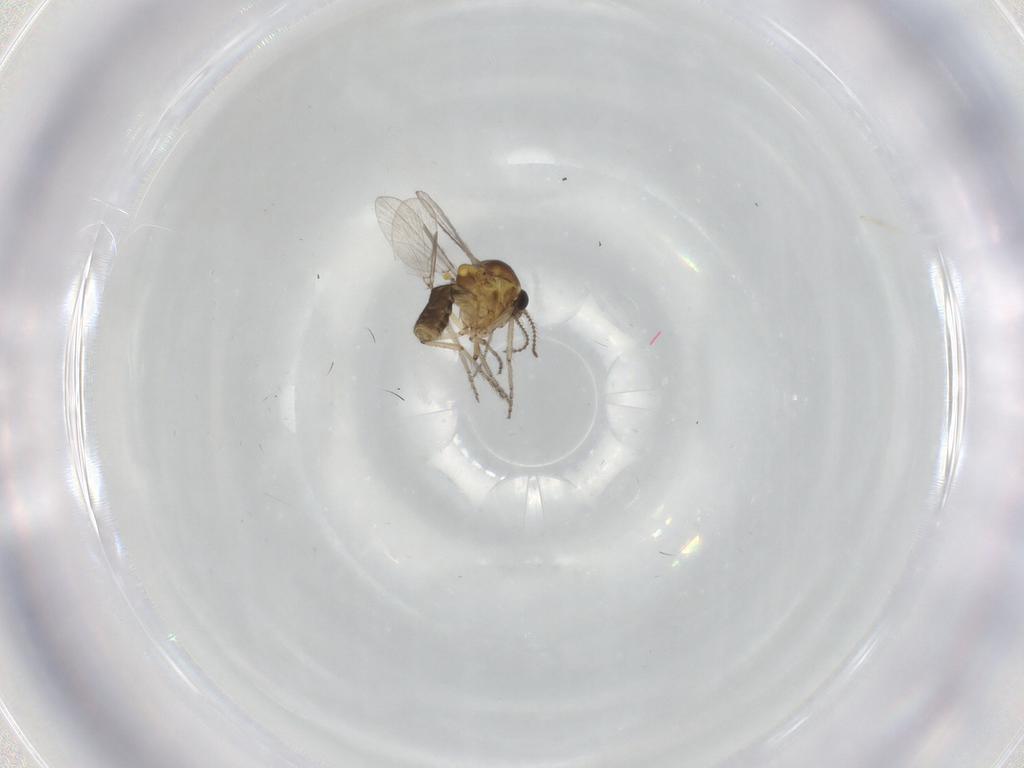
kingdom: Animalia
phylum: Arthropoda
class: Insecta
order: Diptera
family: Ceratopogonidae
